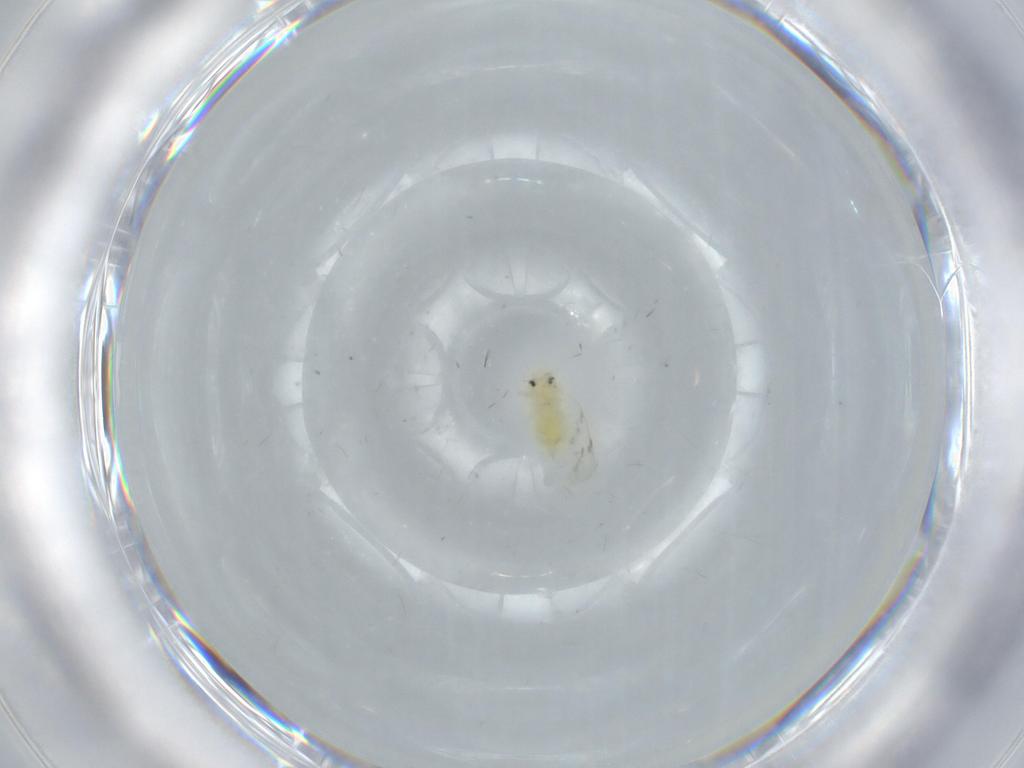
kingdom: Animalia
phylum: Arthropoda
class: Insecta
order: Hemiptera
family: Aleyrodidae
